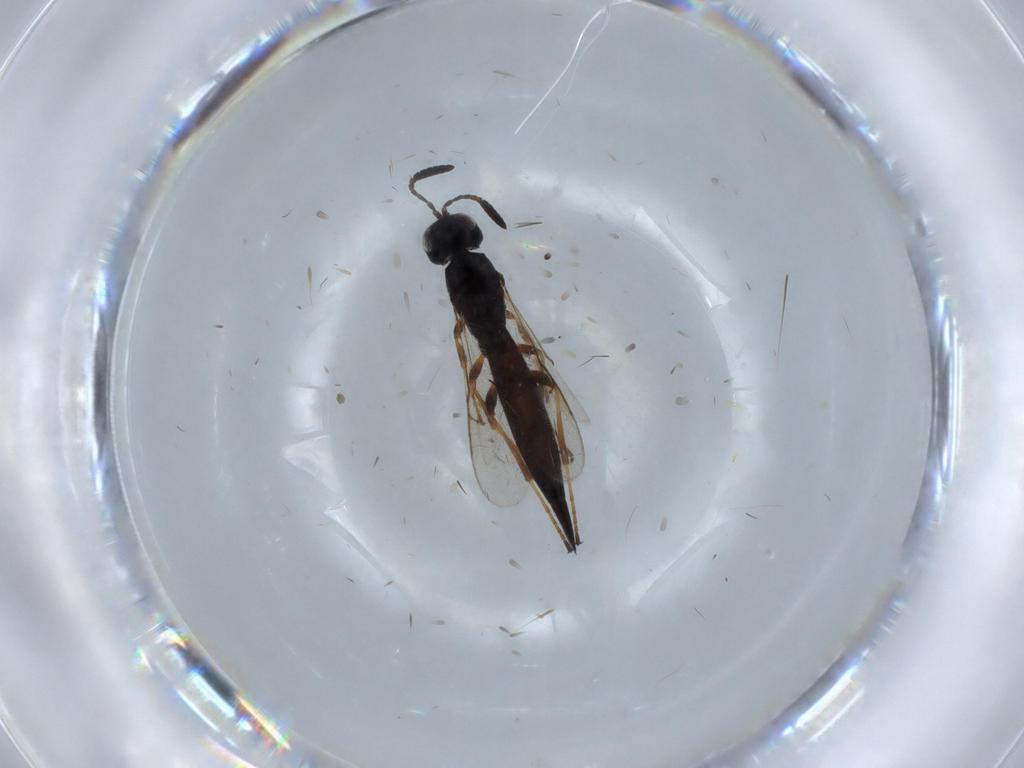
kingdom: Animalia
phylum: Arthropoda
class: Insecta
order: Hymenoptera
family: Scelionidae
